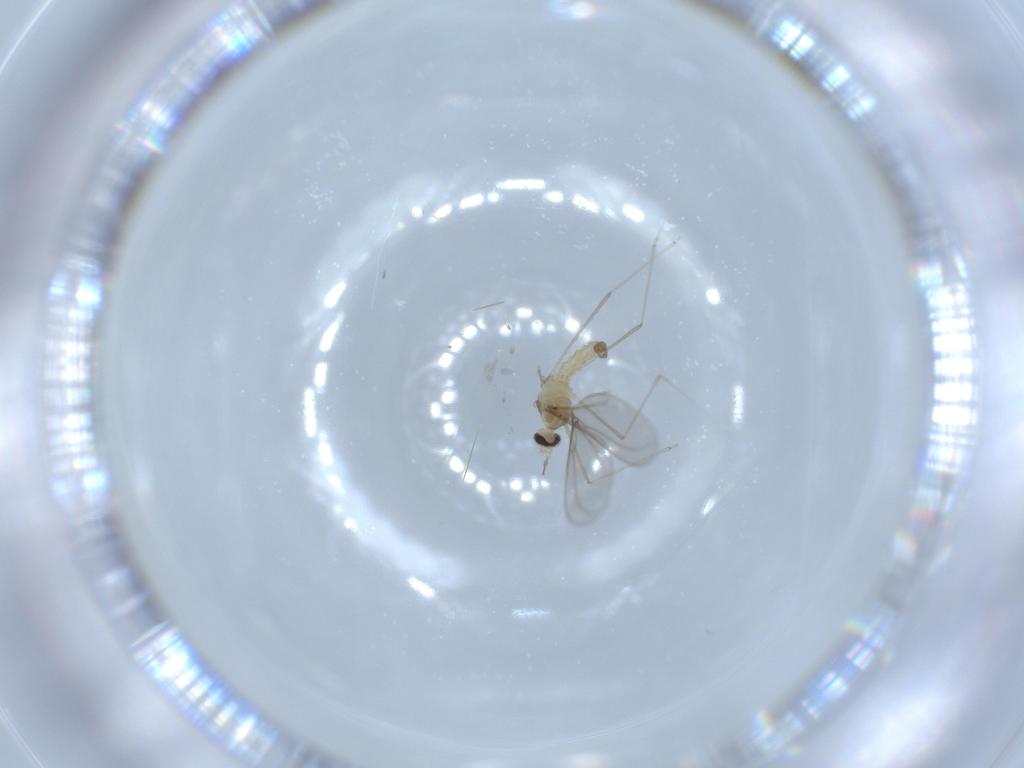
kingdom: Animalia
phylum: Arthropoda
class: Insecta
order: Diptera
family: Cecidomyiidae
